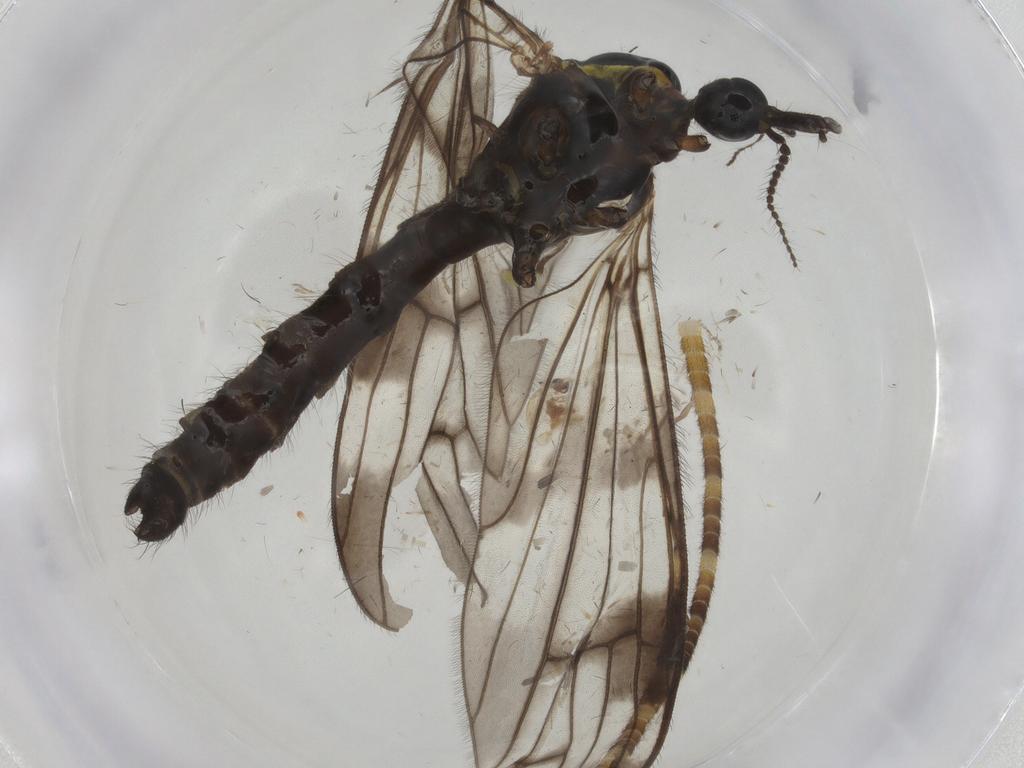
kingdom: Animalia
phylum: Arthropoda
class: Insecta
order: Diptera
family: Limoniidae
